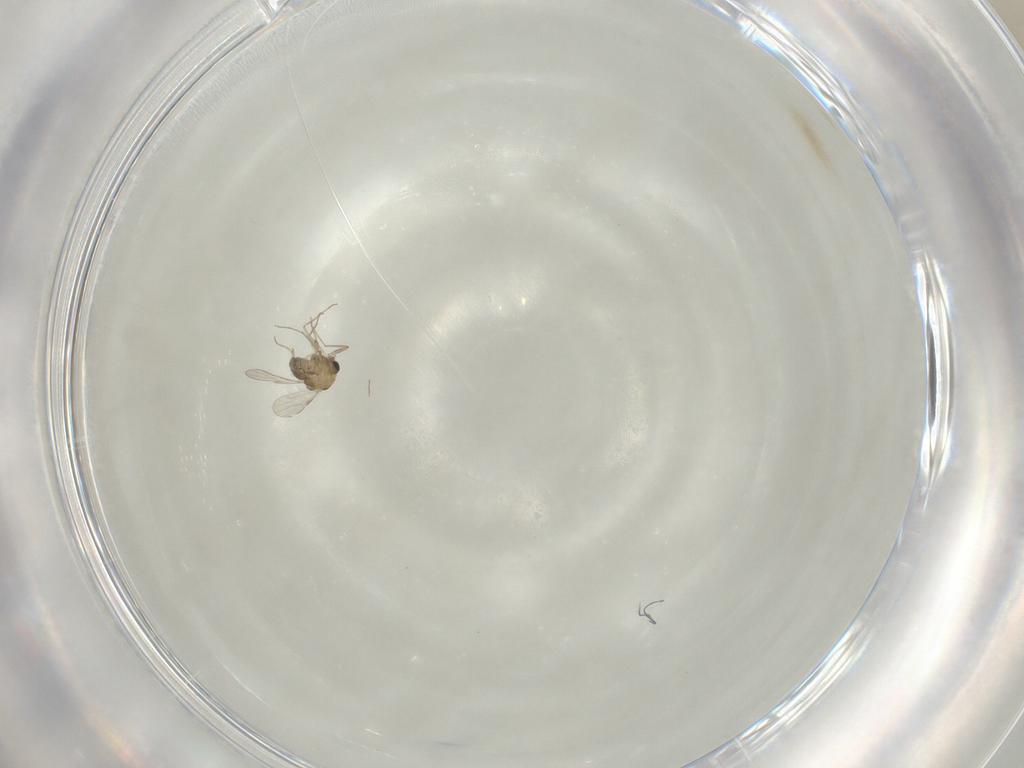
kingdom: Animalia
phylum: Arthropoda
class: Insecta
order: Diptera
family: Chironomidae
